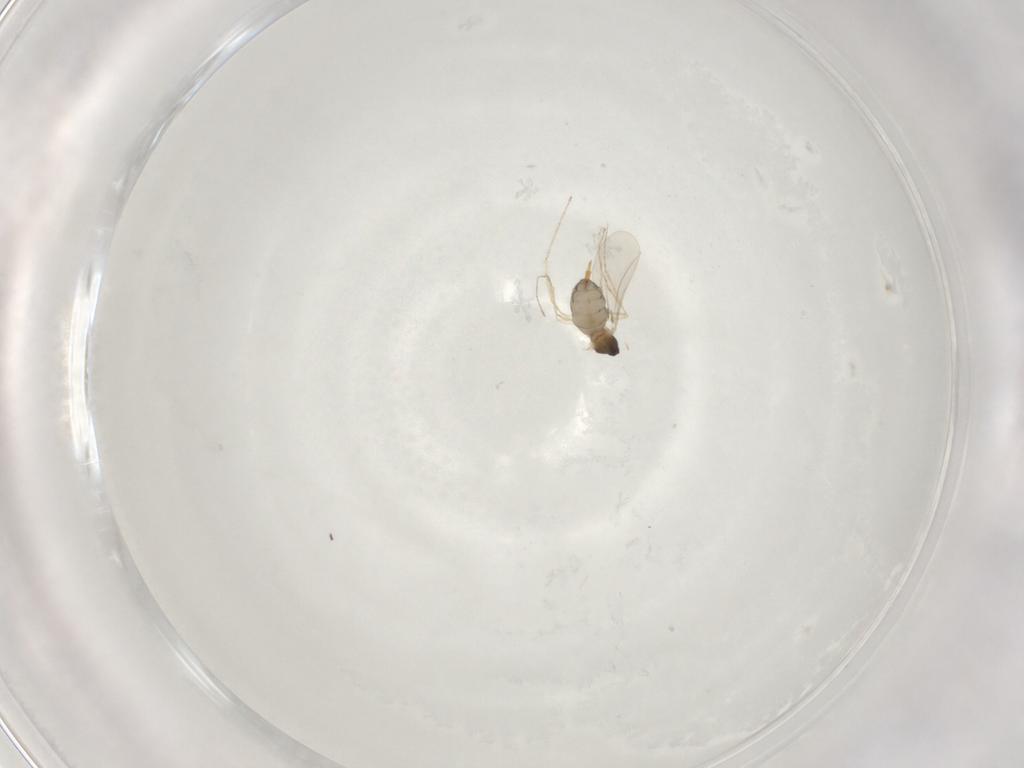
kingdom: Animalia
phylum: Arthropoda
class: Insecta
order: Diptera
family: Cecidomyiidae
